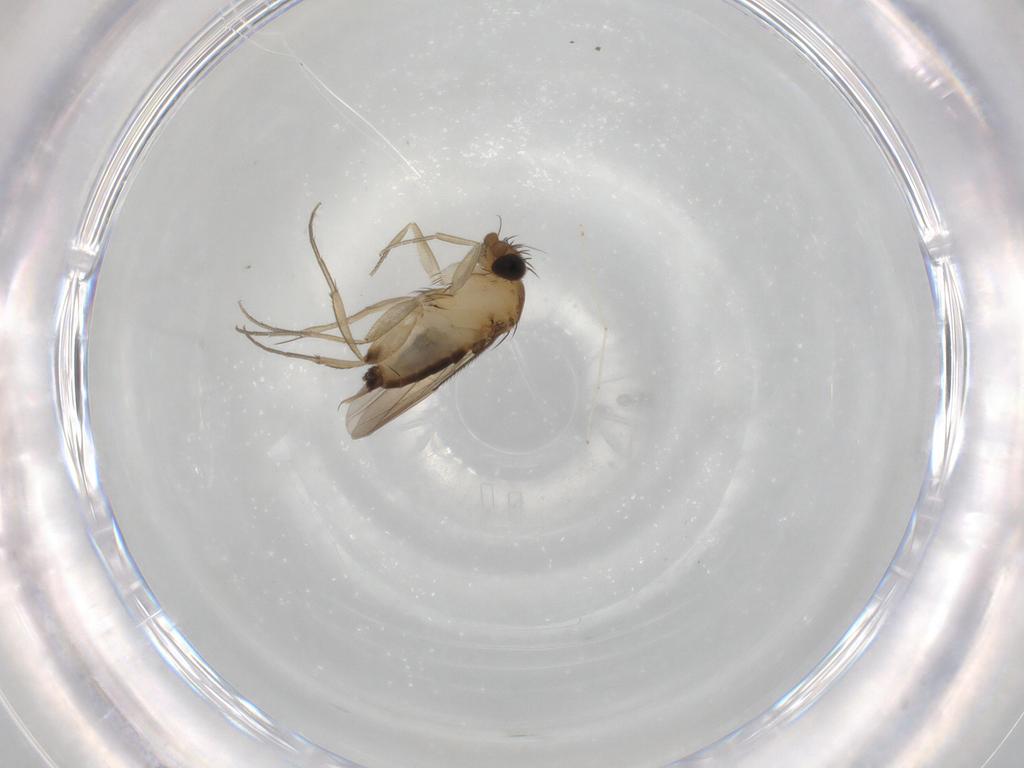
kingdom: Animalia
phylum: Arthropoda
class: Insecta
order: Diptera
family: Phoridae
